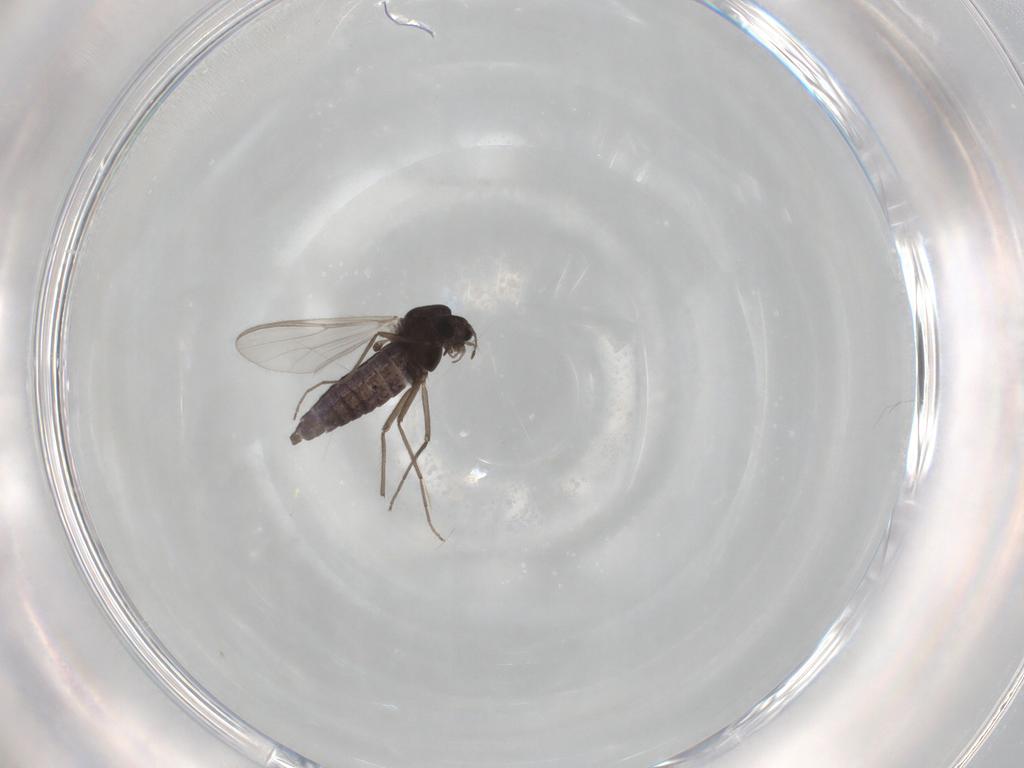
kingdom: Animalia
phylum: Arthropoda
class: Insecta
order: Diptera
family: Chironomidae
